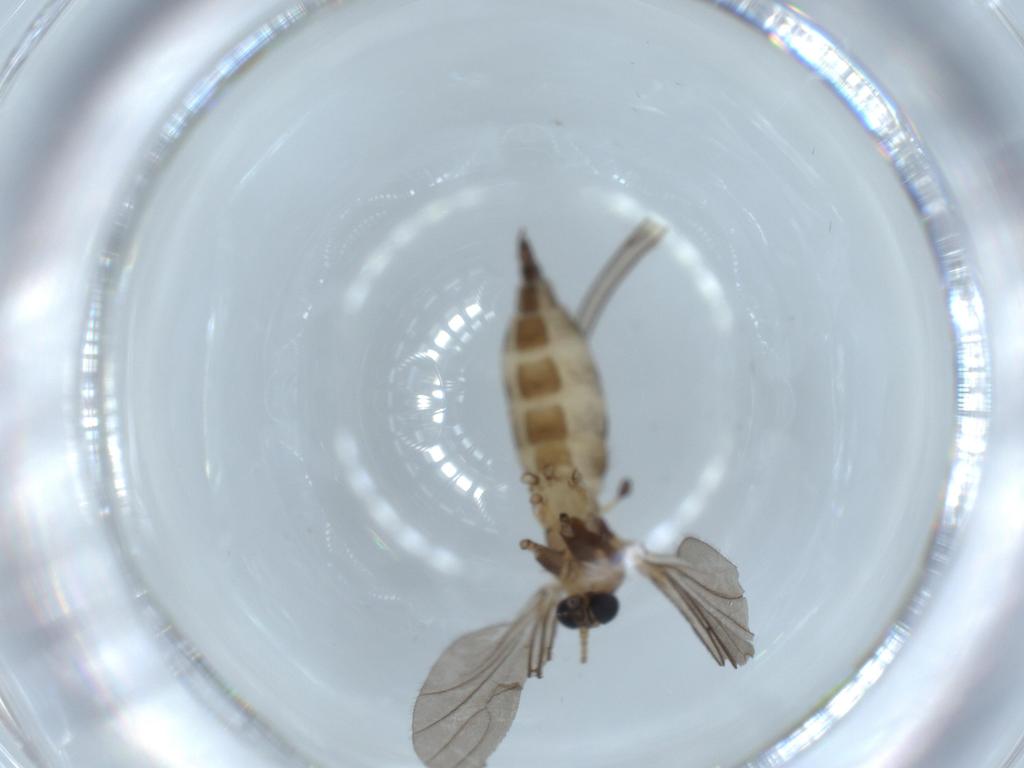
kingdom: Animalia
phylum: Arthropoda
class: Insecta
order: Diptera
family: Sciaridae
